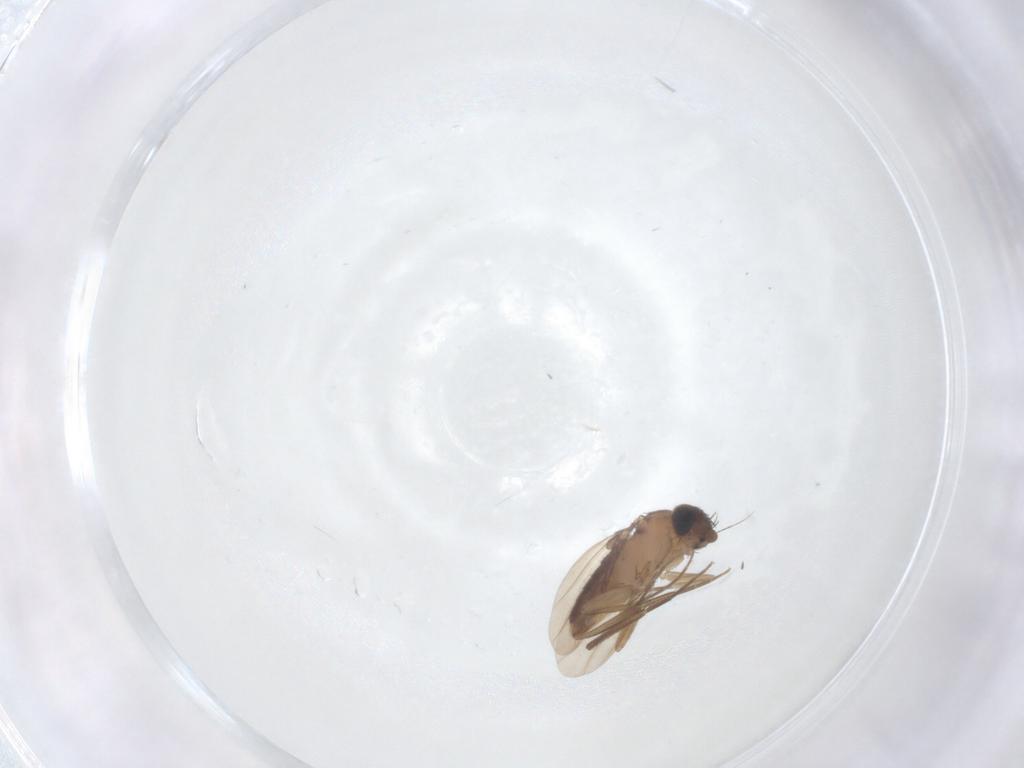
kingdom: Animalia
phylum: Arthropoda
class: Insecta
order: Diptera
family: Phoridae
